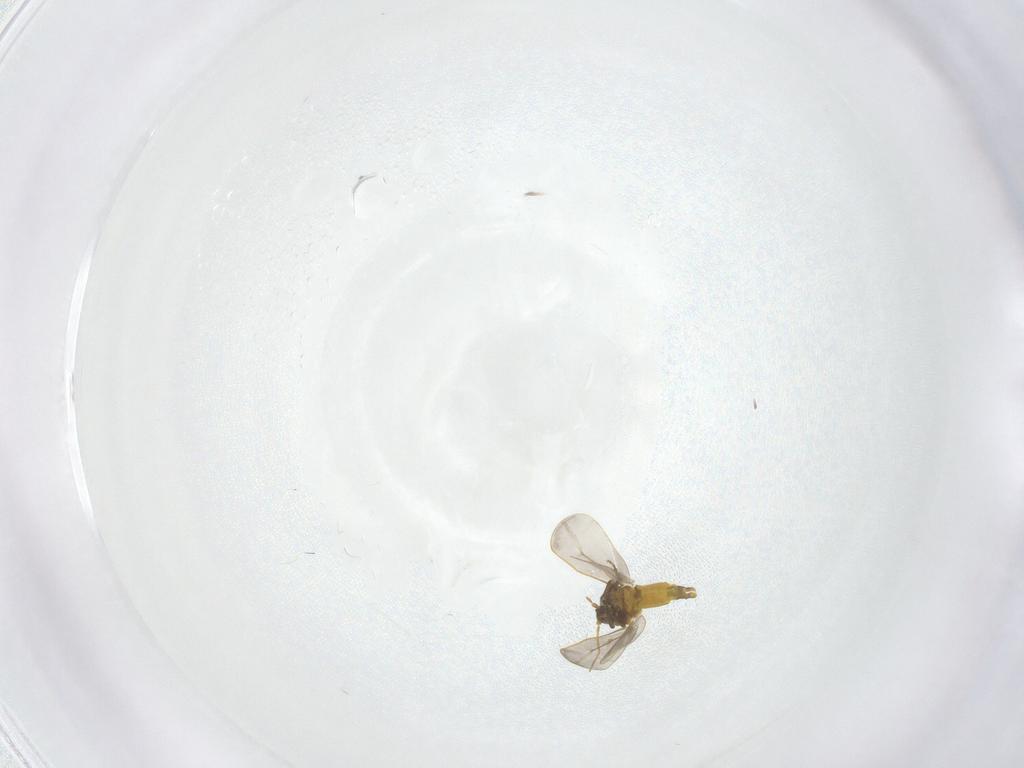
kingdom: Animalia
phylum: Arthropoda
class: Insecta
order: Hemiptera
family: Aleyrodidae
